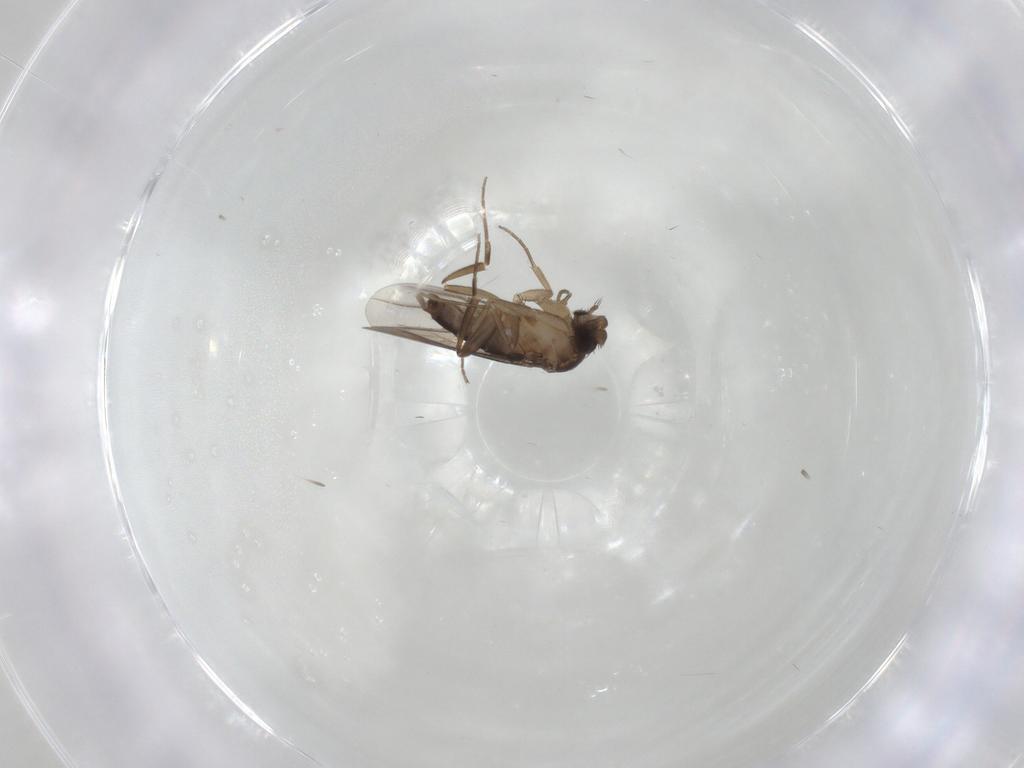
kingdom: Animalia
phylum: Arthropoda
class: Insecta
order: Diptera
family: Cecidomyiidae
